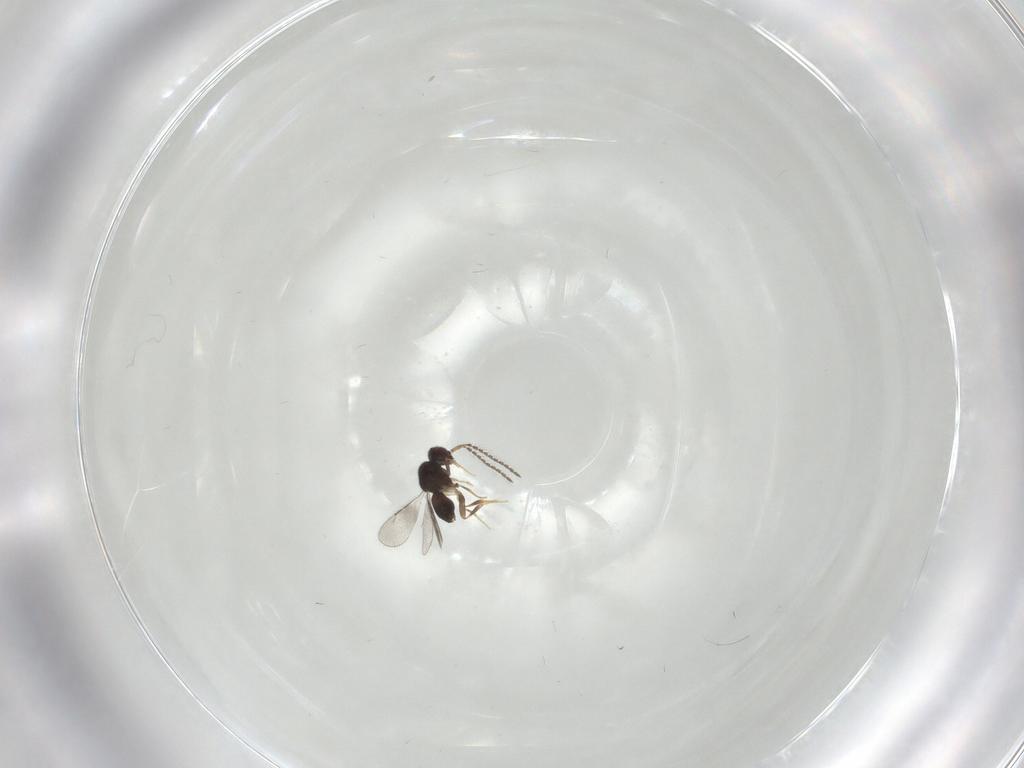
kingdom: Animalia
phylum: Arthropoda
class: Insecta
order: Hymenoptera
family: Ceraphronidae
